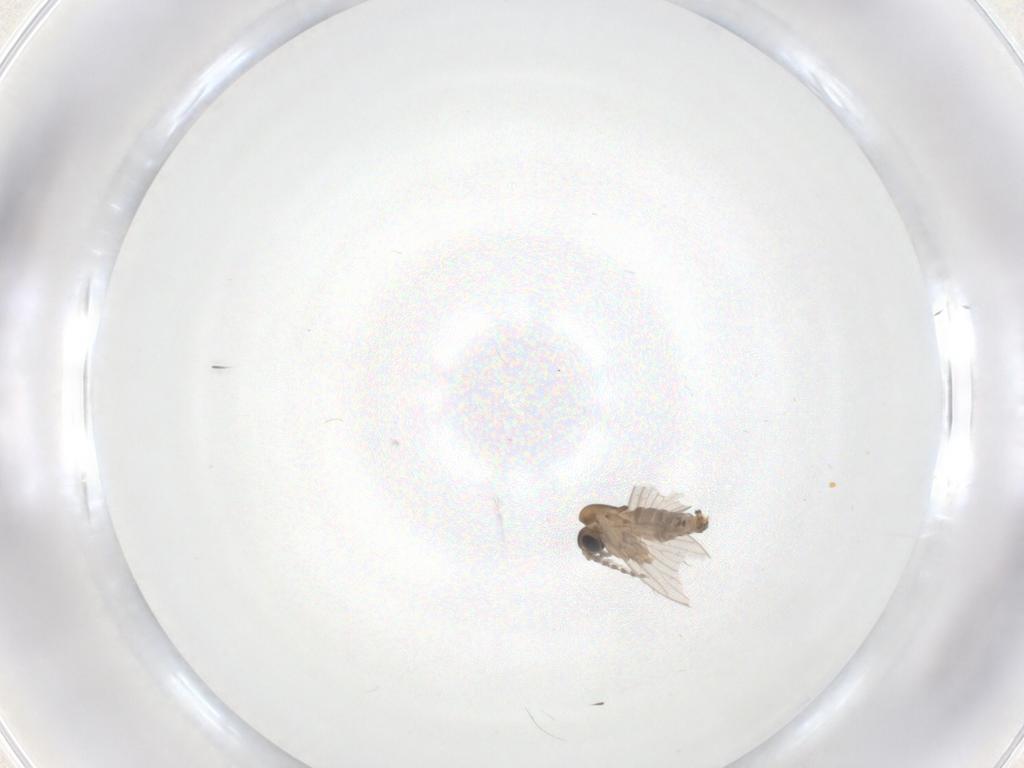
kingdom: Animalia
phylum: Arthropoda
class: Insecta
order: Diptera
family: Psychodidae
